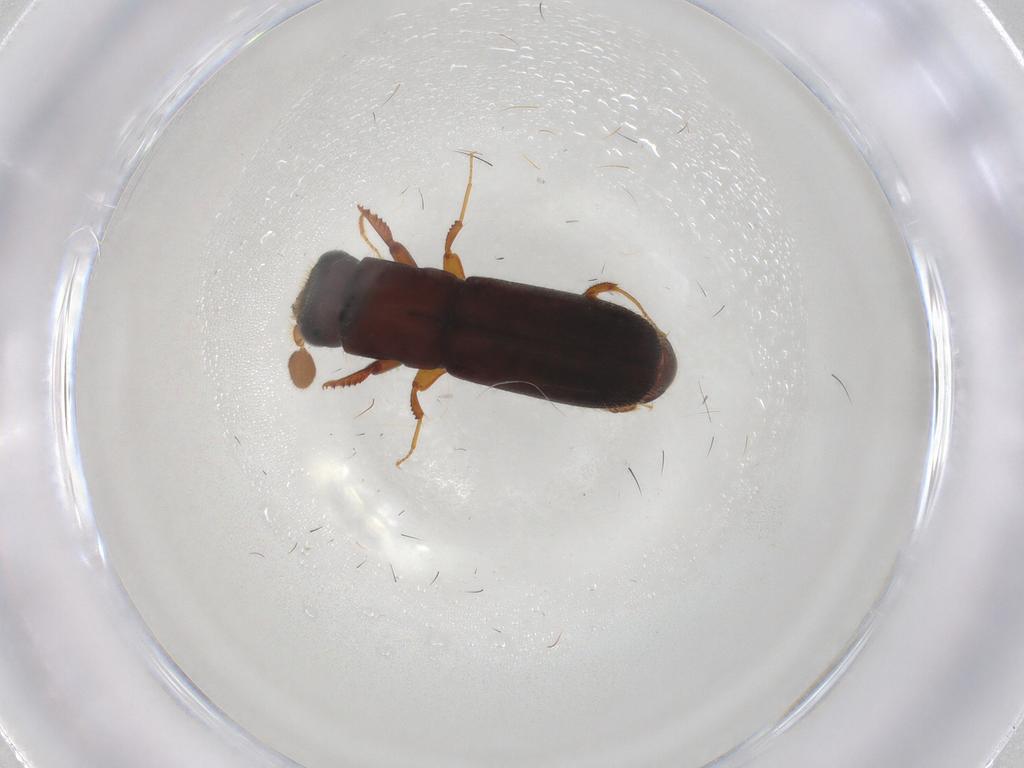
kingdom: Animalia
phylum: Arthropoda
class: Insecta
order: Coleoptera
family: Curculionidae
